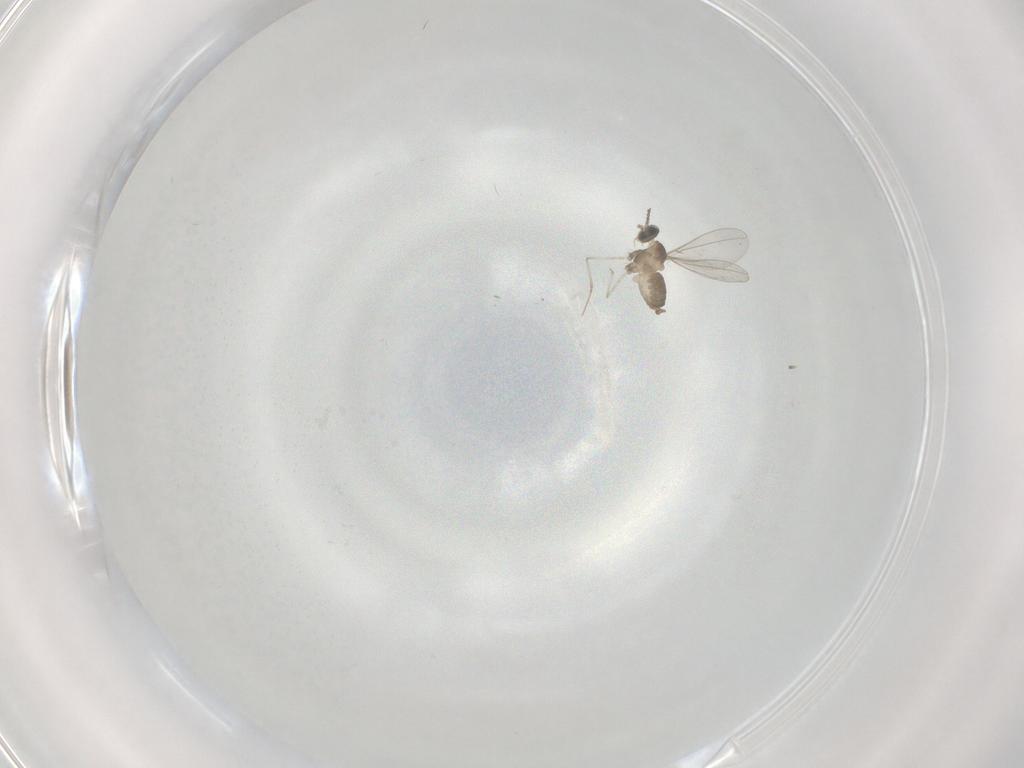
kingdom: Animalia
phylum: Arthropoda
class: Insecta
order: Diptera
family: Cecidomyiidae
